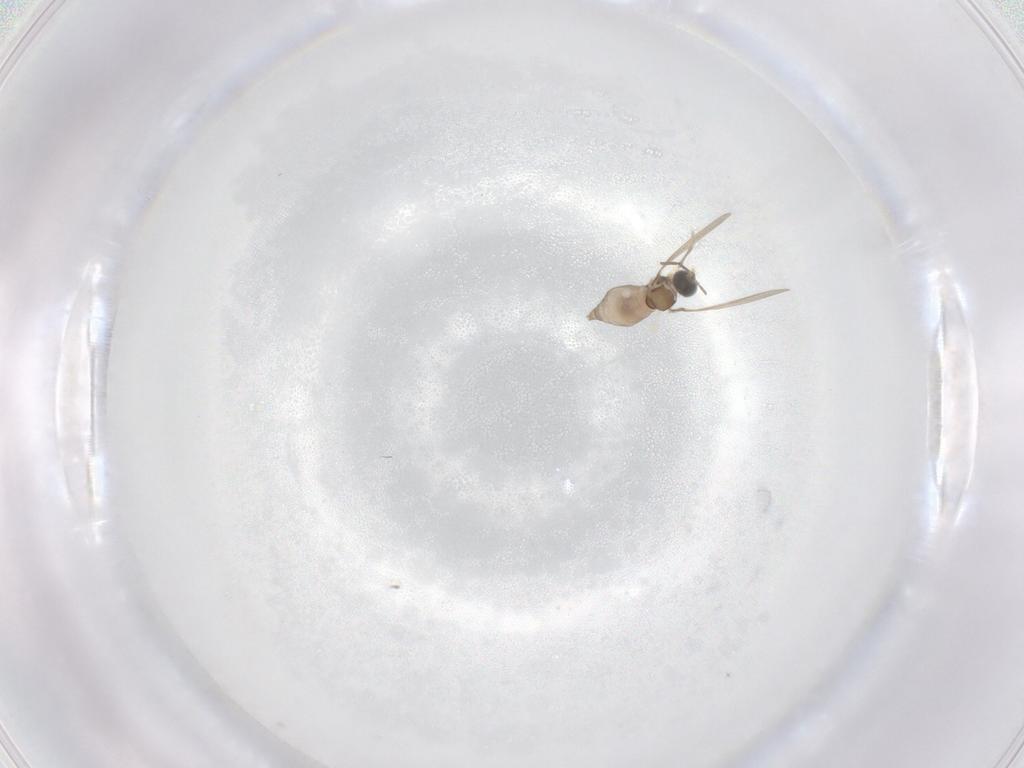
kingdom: Animalia
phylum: Arthropoda
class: Insecta
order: Diptera
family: Cecidomyiidae
